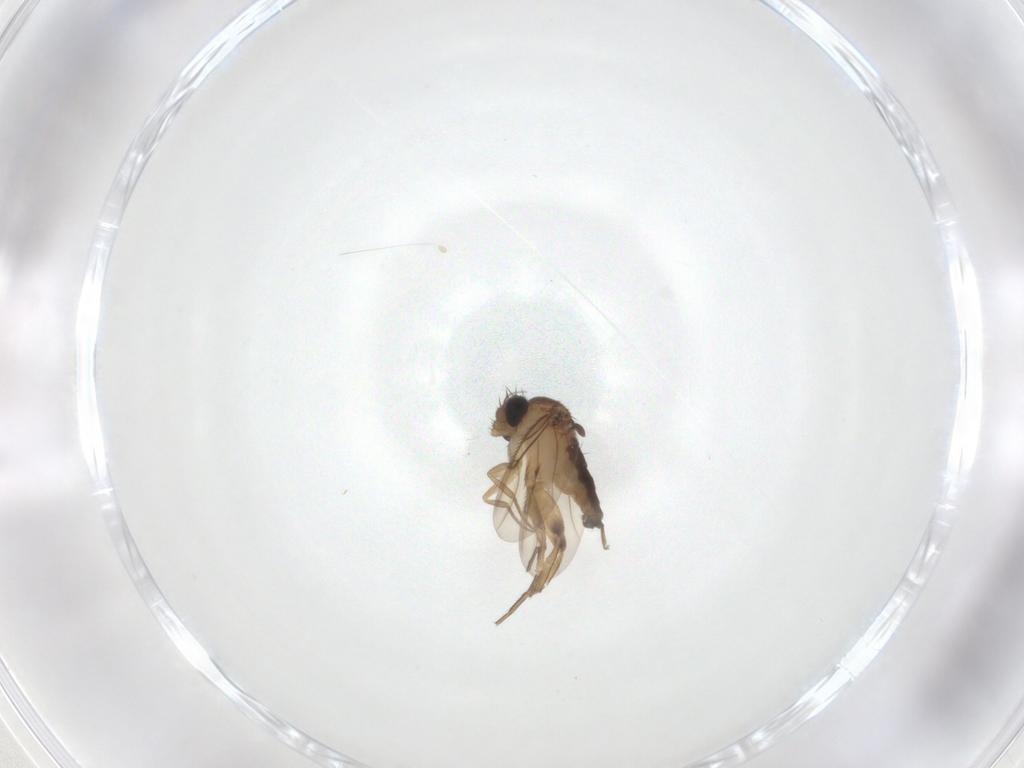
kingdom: Animalia
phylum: Arthropoda
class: Insecta
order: Diptera
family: Phoridae
